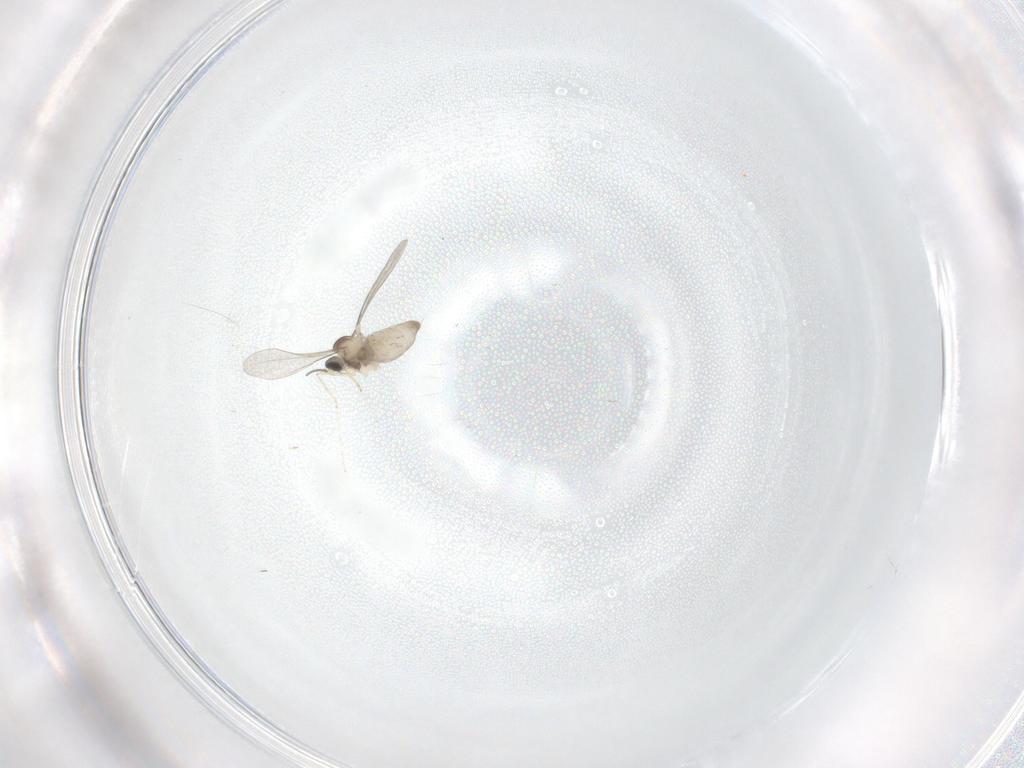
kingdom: Animalia
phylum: Arthropoda
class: Insecta
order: Diptera
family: Cecidomyiidae
